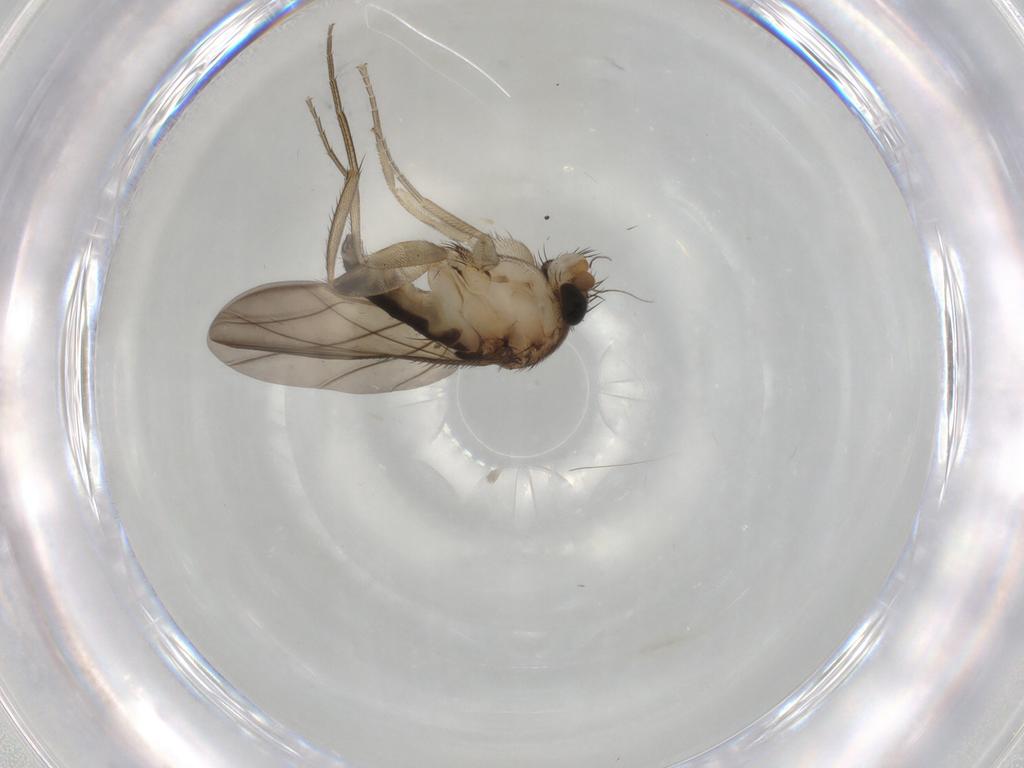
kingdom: Animalia
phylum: Arthropoda
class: Insecta
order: Diptera
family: Phoridae
